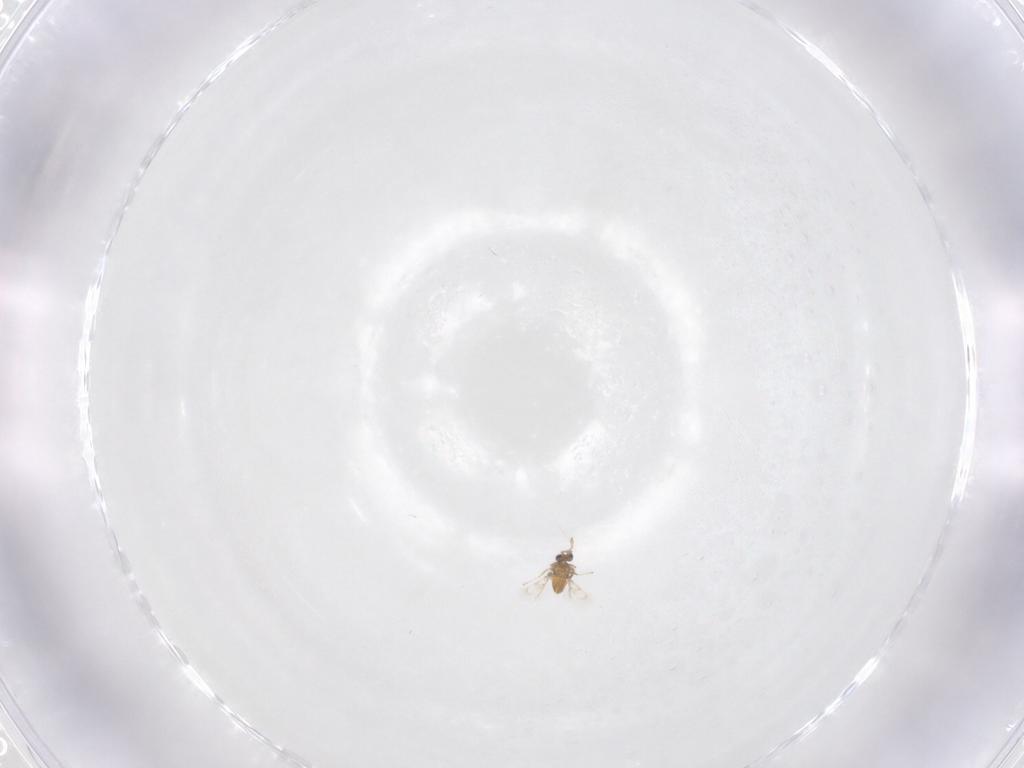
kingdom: Animalia
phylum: Arthropoda
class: Insecta
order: Hymenoptera
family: Trichogrammatidae
